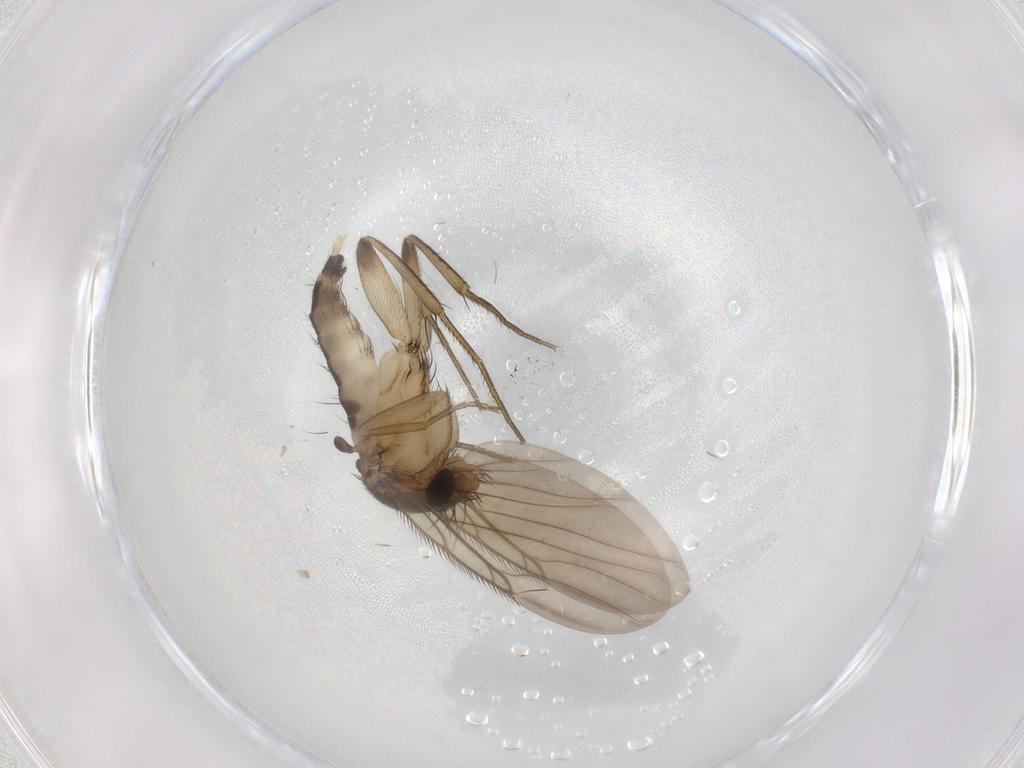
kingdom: Animalia
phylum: Arthropoda
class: Insecta
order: Diptera
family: Phoridae
